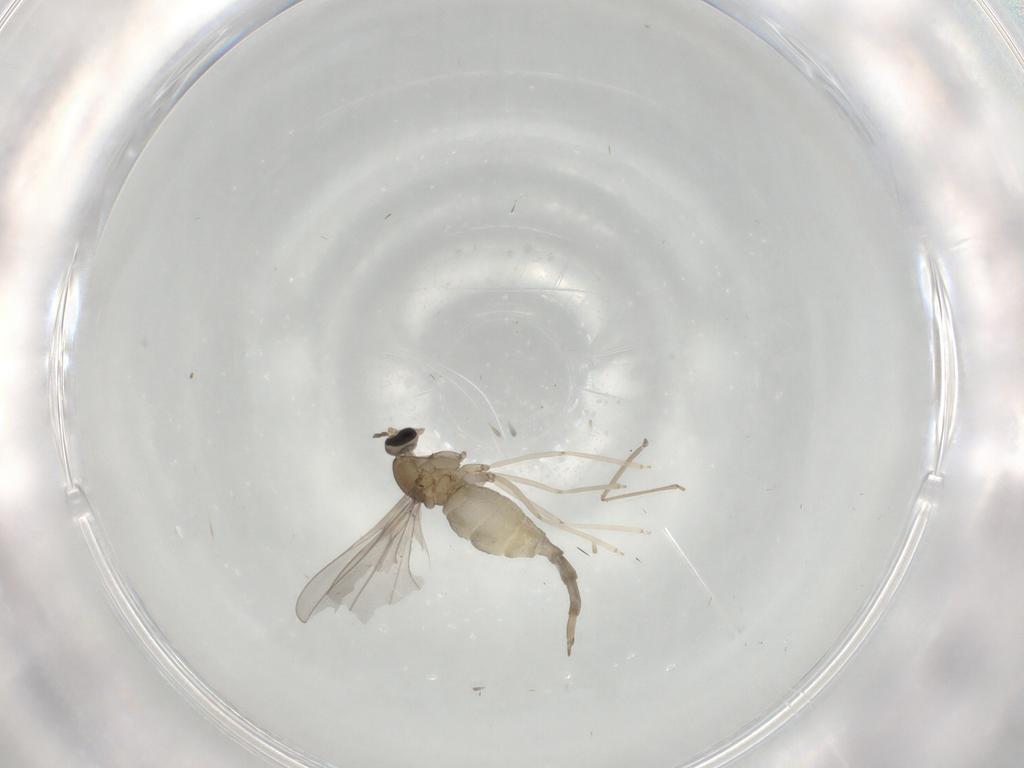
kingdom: Animalia
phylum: Arthropoda
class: Insecta
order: Diptera
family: Cecidomyiidae
